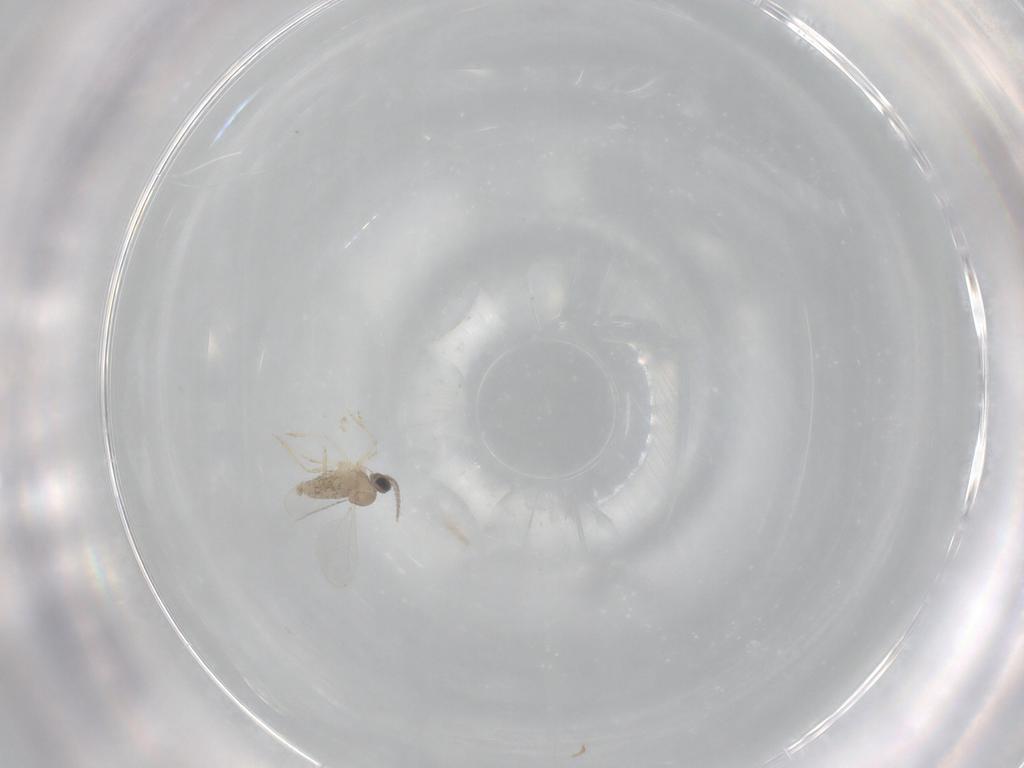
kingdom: Animalia
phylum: Arthropoda
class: Insecta
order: Diptera
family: Cecidomyiidae
